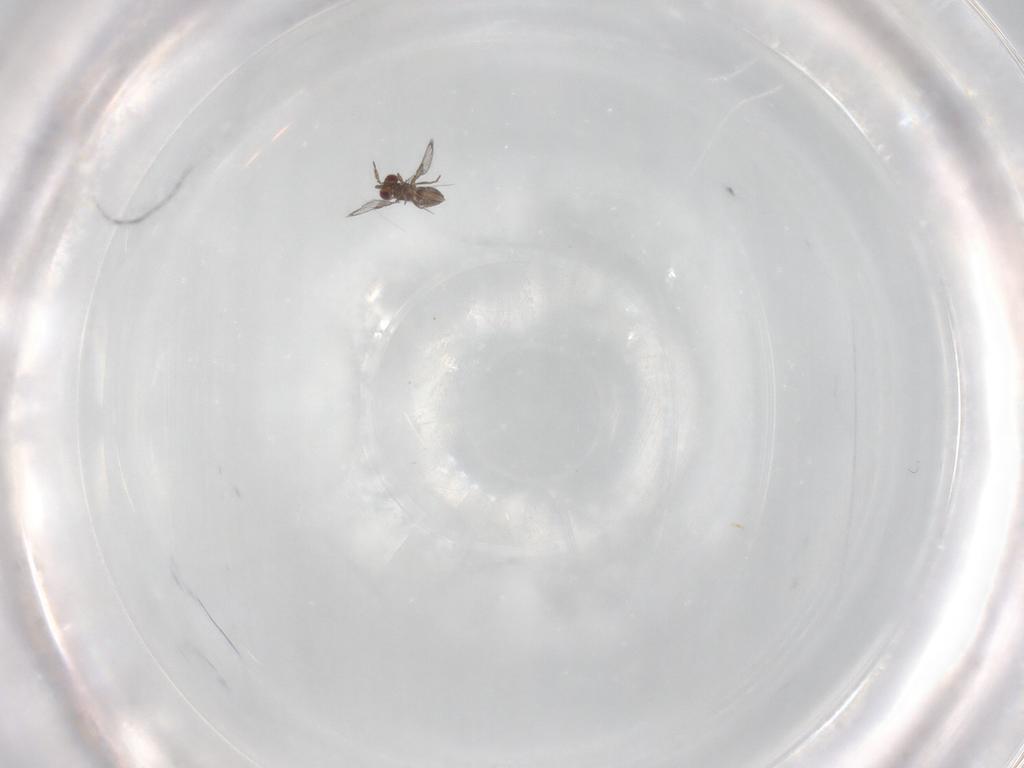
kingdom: Animalia
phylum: Arthropoda
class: Insecta
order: Hymenoptera
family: Trichogrammatidae
